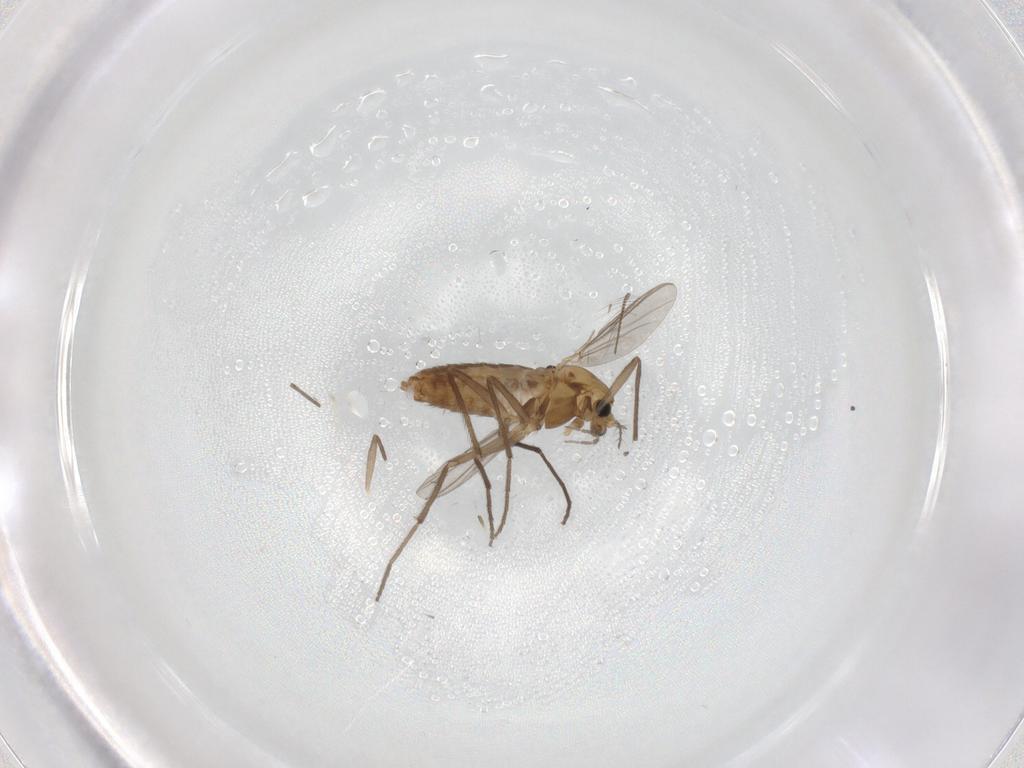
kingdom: Animalia
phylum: Arthropoda
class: Insecta
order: Diptera
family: Chironomidae
